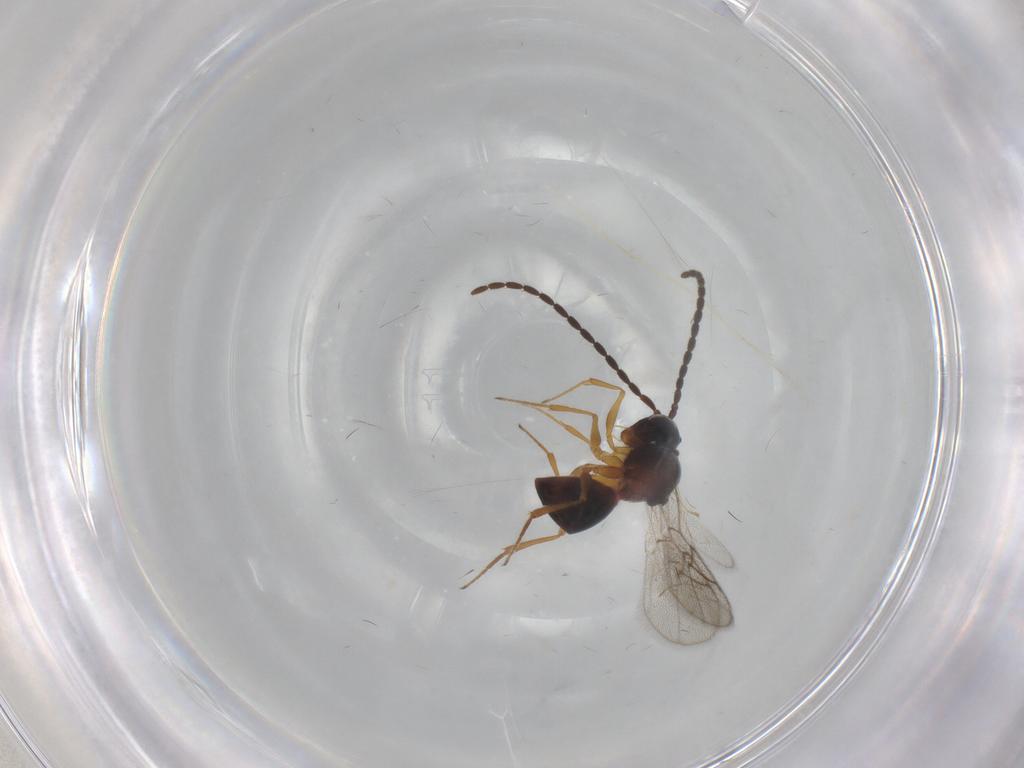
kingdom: Animalia
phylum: Arthropoda
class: Insecta
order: Hymenoptera
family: Figitidae
